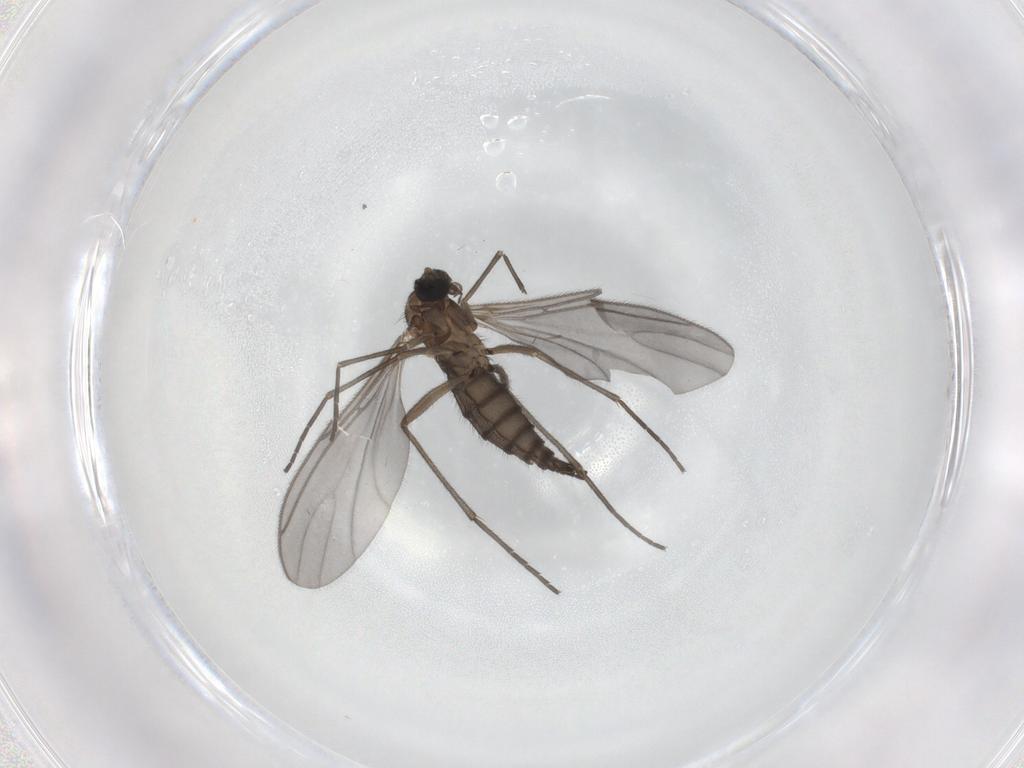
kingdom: Animalia
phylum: Arthropoda
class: Insecta
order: Diptera
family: Sciaridae
